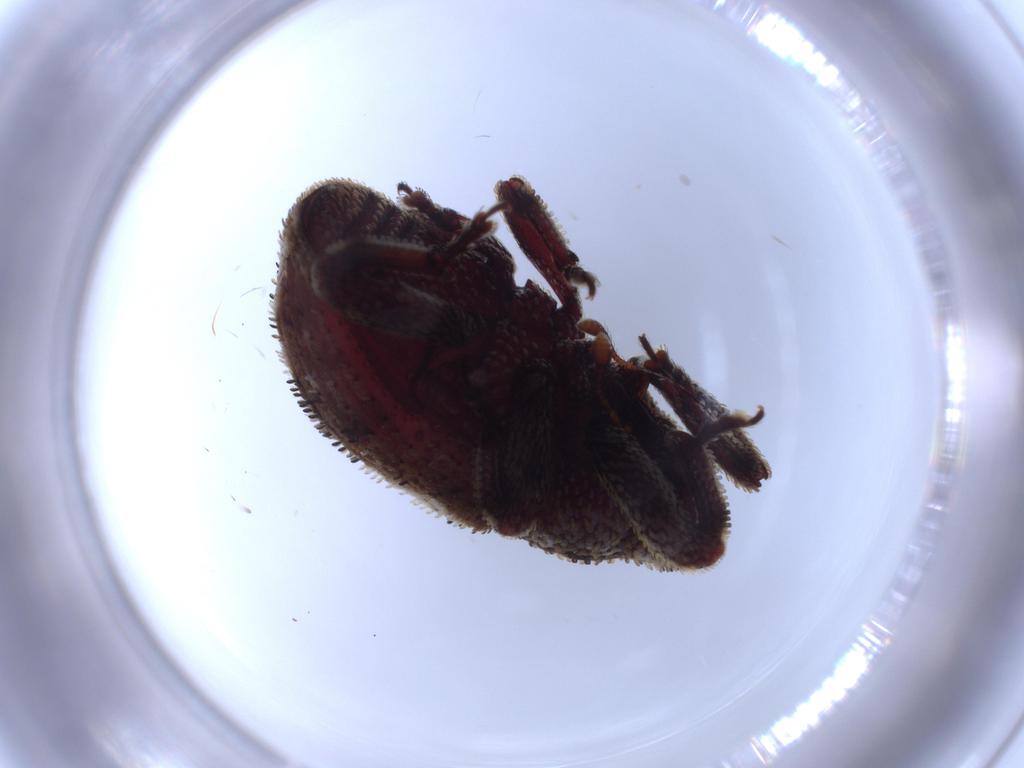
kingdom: Animalia
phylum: Arthropoda
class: Insecta
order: Coleoptera
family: Curculionidae
